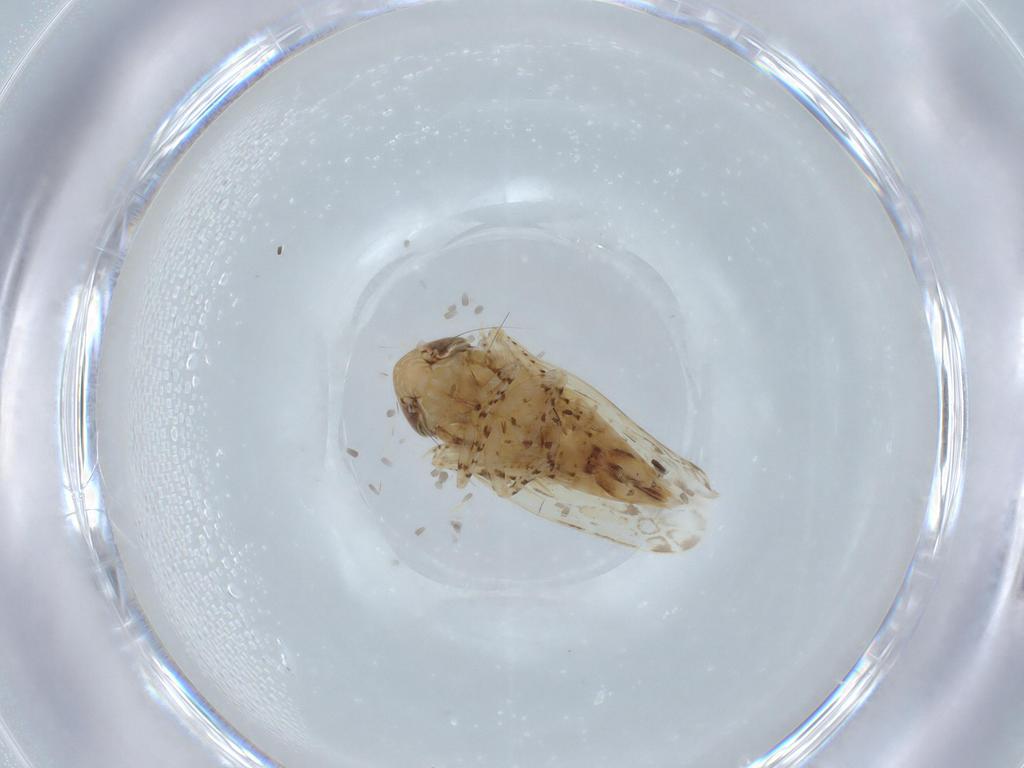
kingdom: Animalia
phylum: Arthropoda
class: Insecta
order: Hemiptera
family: Cicadellidae
